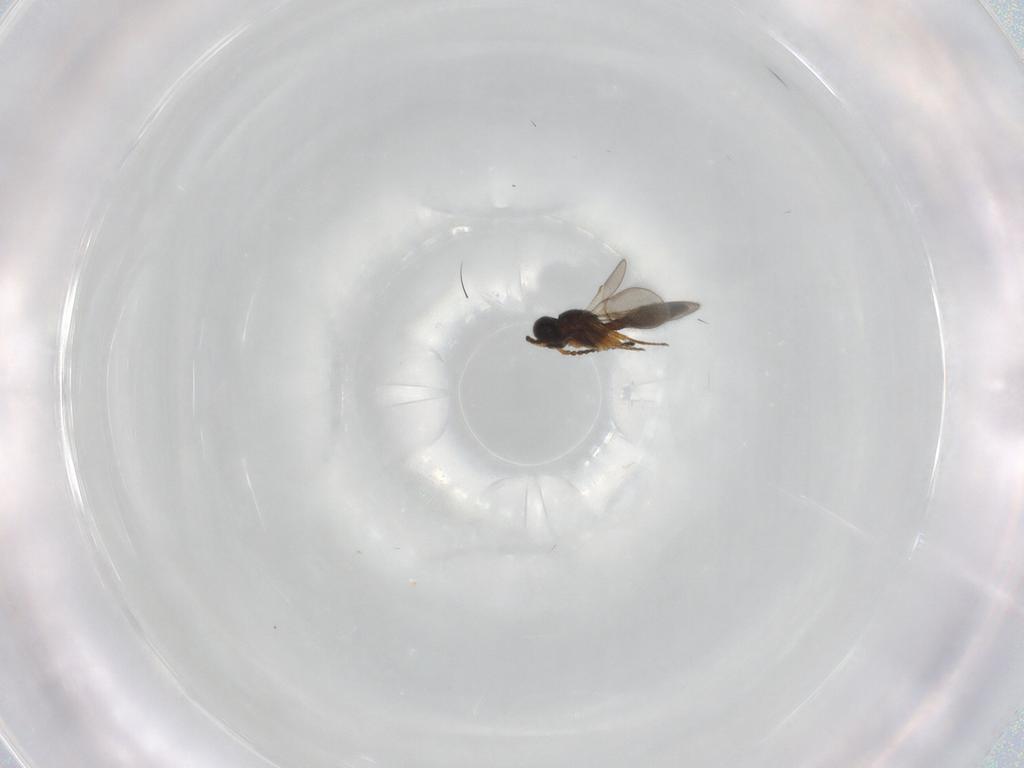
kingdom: Animalia
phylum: Arthropoda
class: Insecta
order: Hymenoptera
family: Scelionidae
